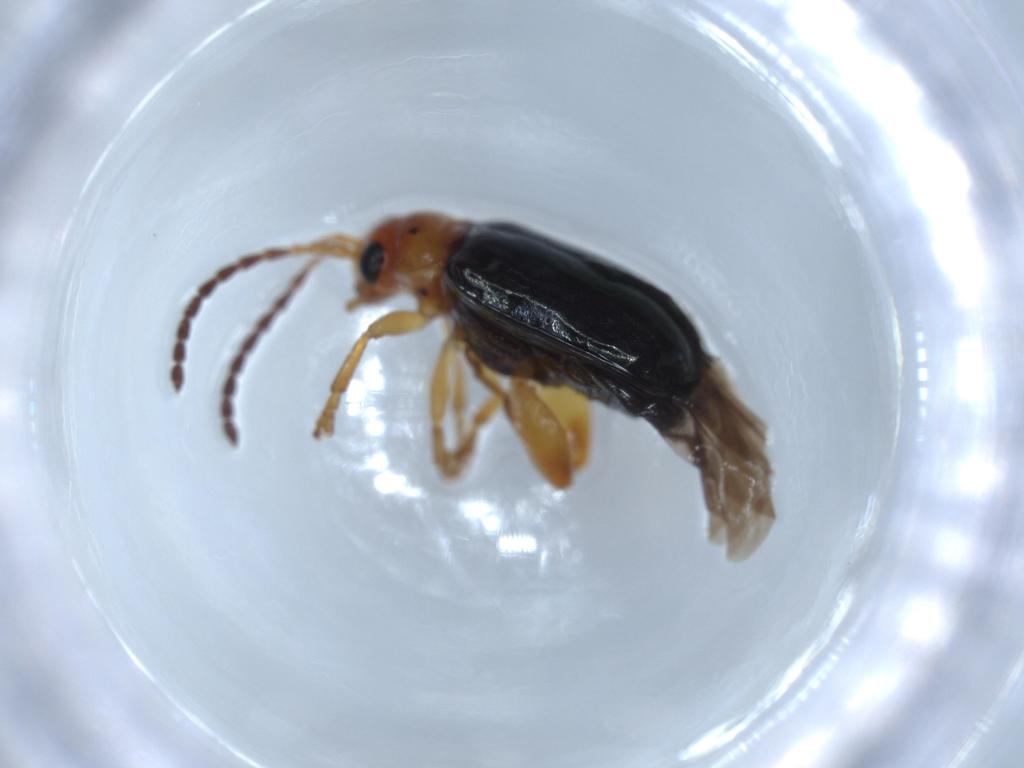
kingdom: Animalia
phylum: Arthropoda
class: Insecta
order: Coleoptera
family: Chrysomelidae
